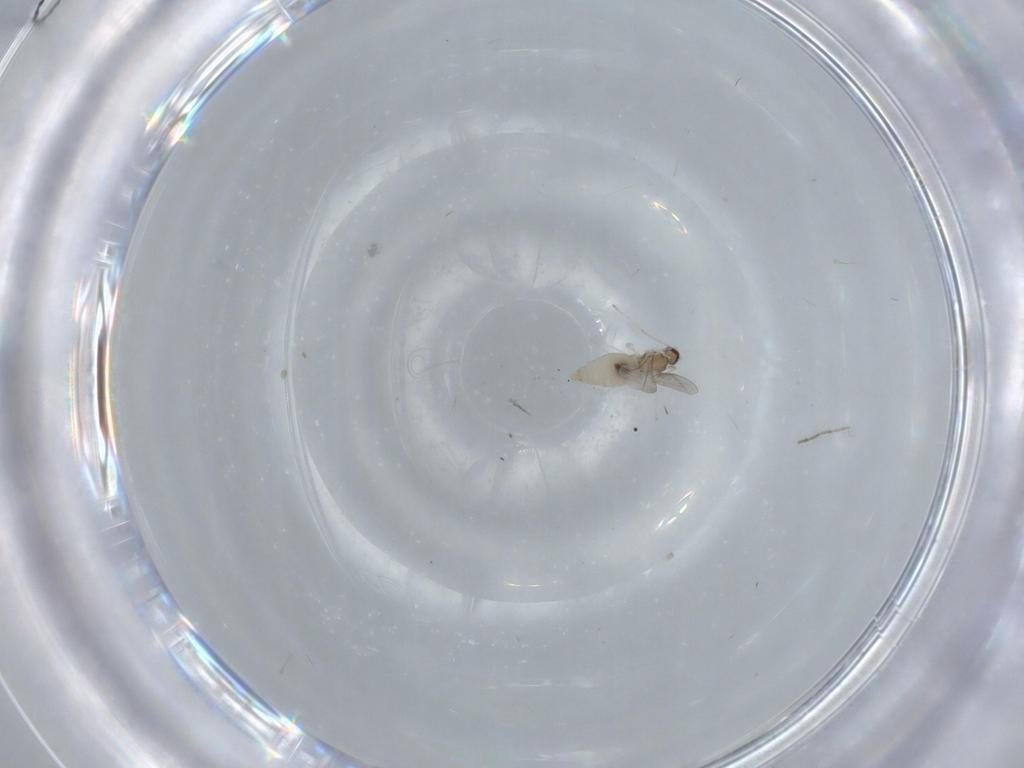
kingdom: Animalia
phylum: Arthropoda
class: Insecta
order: Diptera
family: Cecidomyiidae
